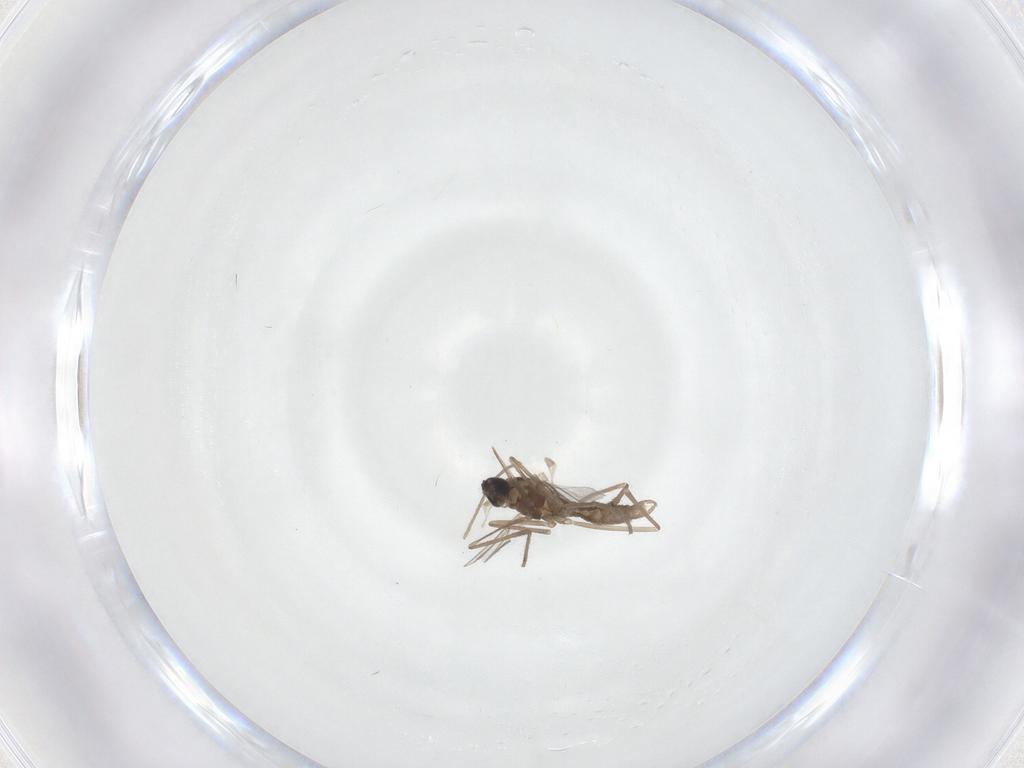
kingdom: Animalia
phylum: Arthropoda
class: Insecta
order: Diptera
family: Cecidomyiidae
